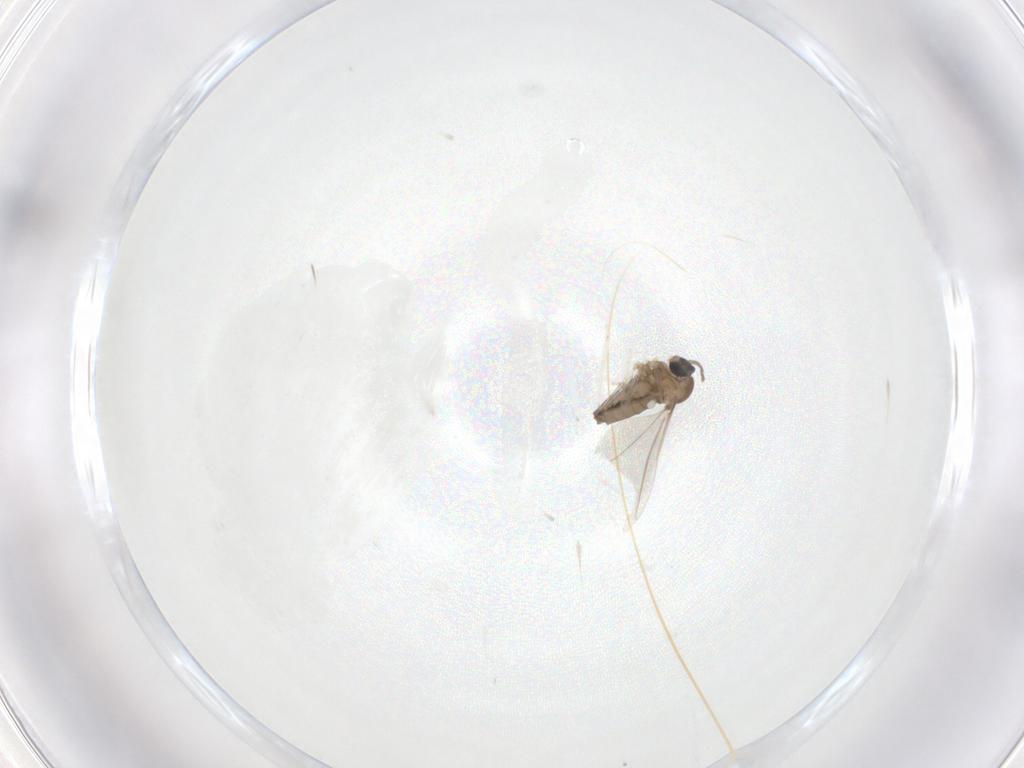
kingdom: Animalia
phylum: Arthropoda
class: Insecta
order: Diptera
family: Cecidomyiidae
